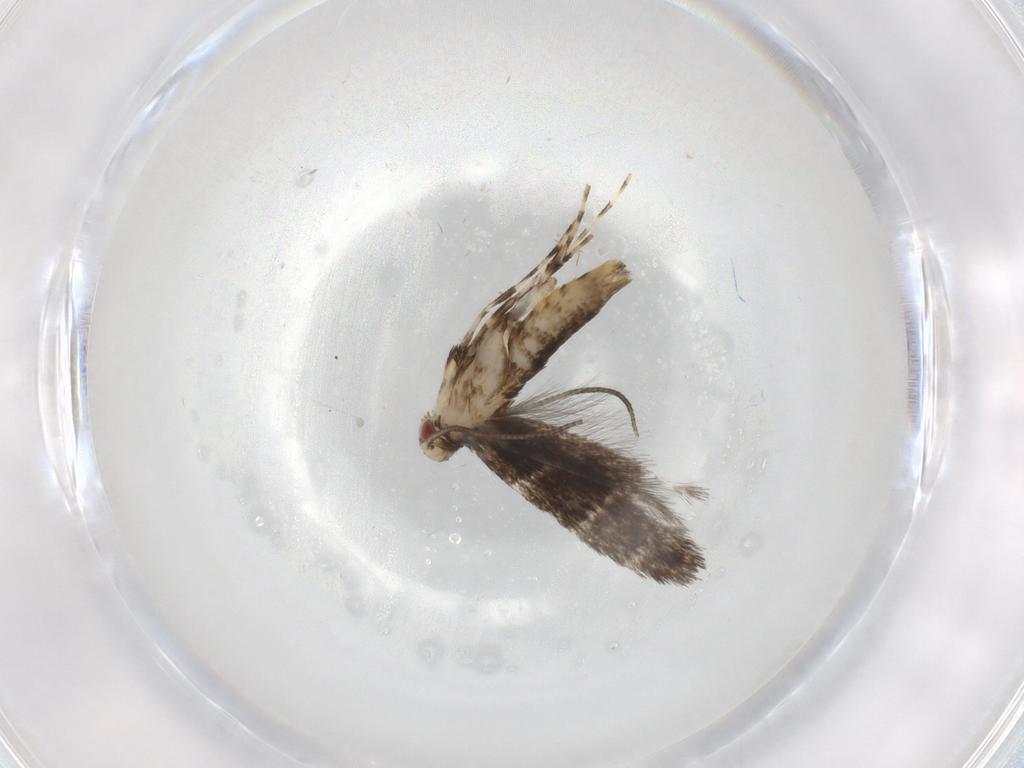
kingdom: Animalia
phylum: Arthropoda
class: Insecta
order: Lepidoptera
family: Gracillariidae
